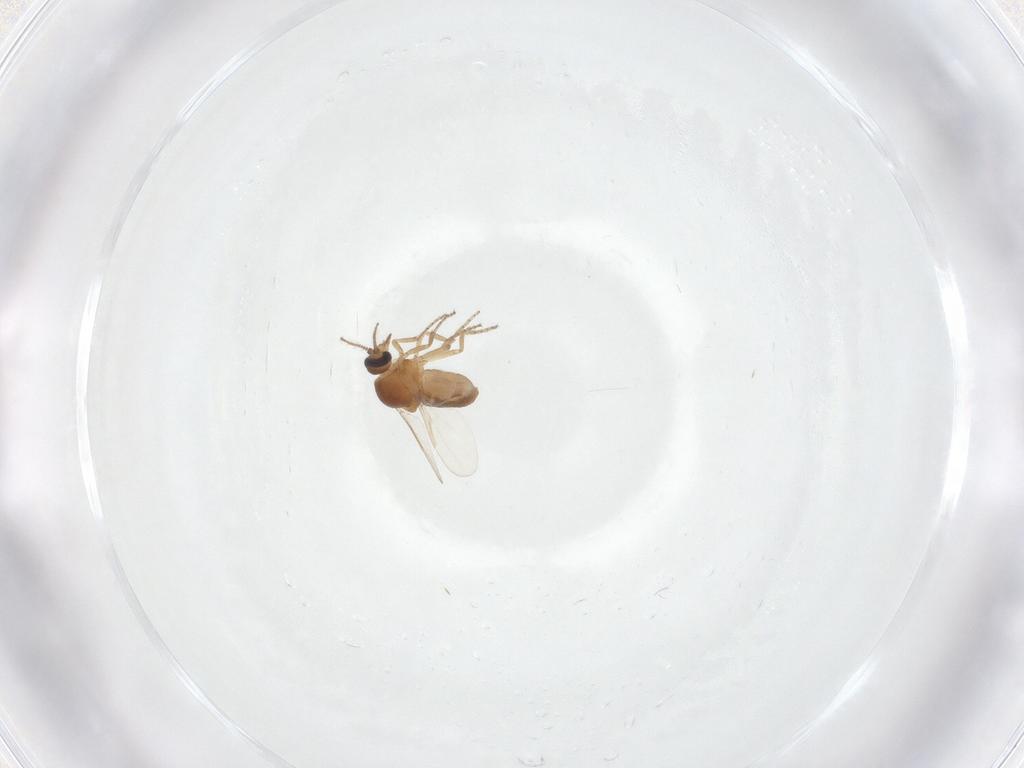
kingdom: Animalia
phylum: Arthropoda
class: Insecta
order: Diptera
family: Ceratopogonidae
